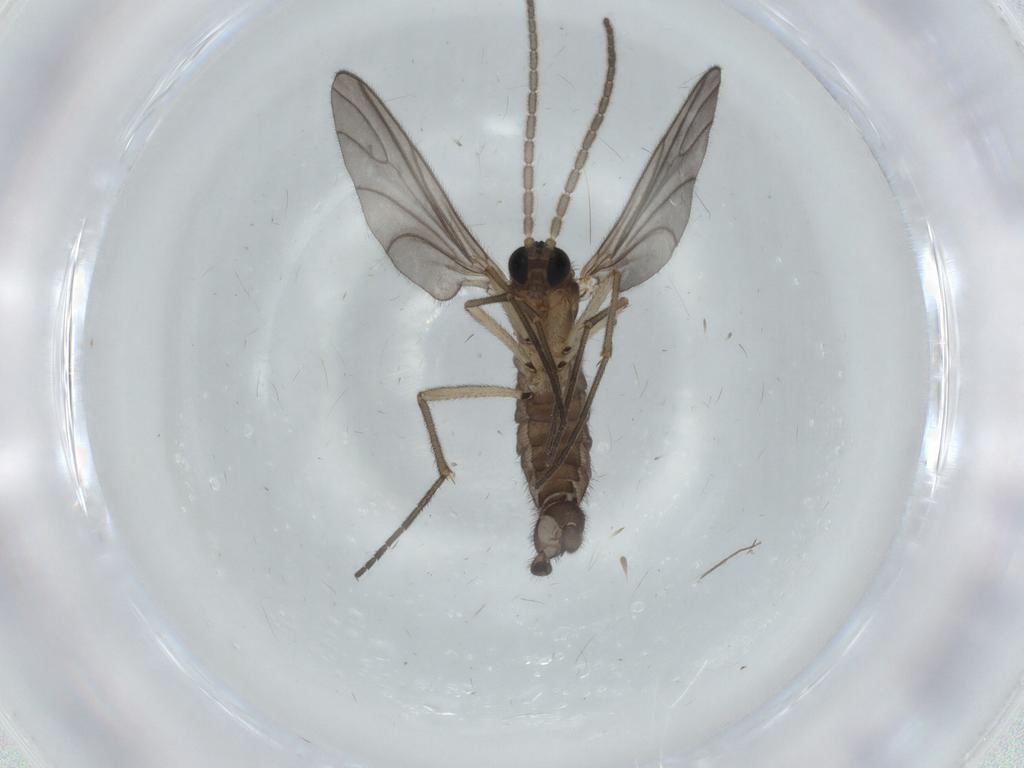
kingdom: Animalia
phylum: Arthropoda
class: Insecta
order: Diptera
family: Sciaridae
